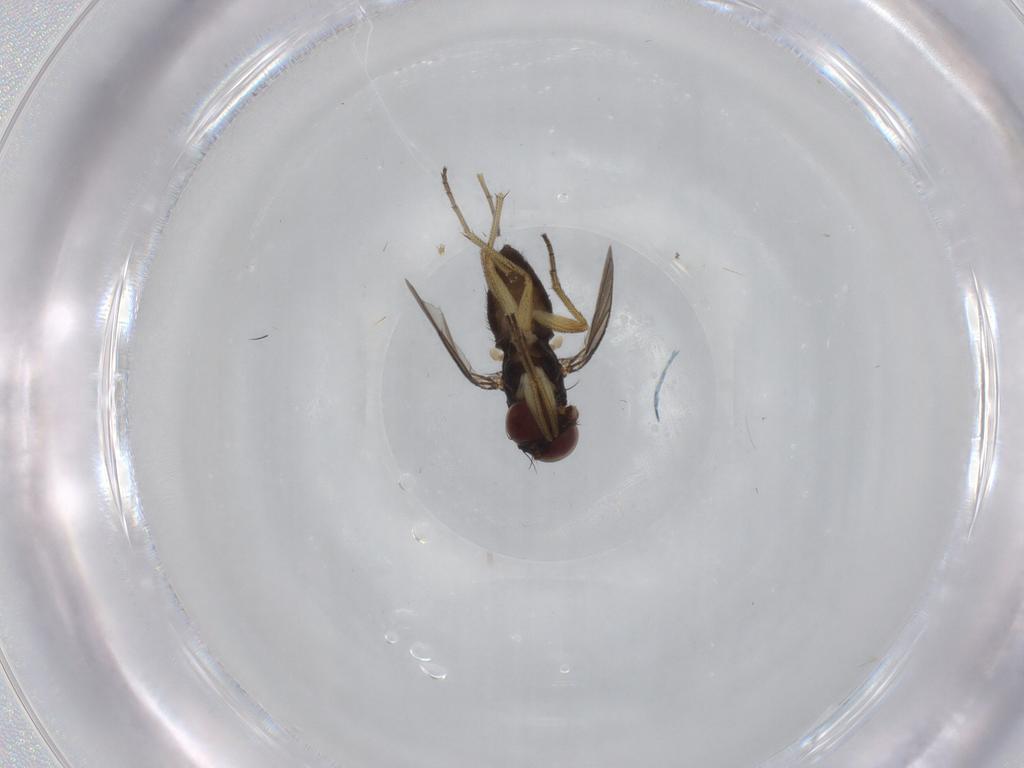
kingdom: Animalia
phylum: Arthropoda
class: Insecta
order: Diptera
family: Dolichopodidae
